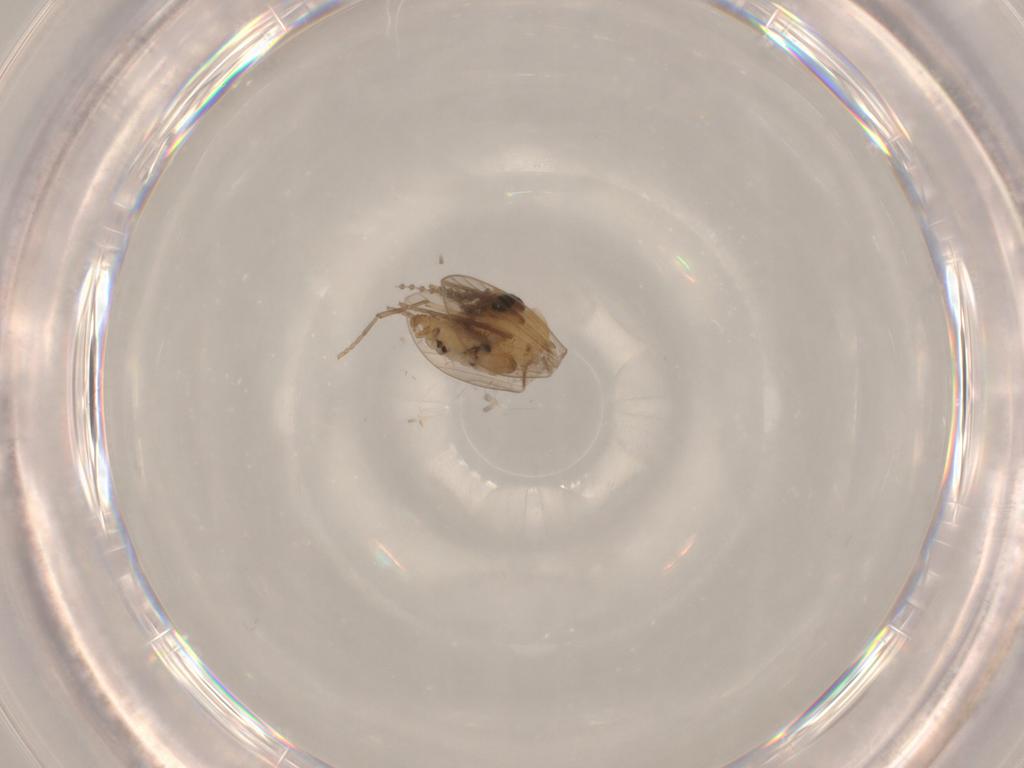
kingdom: Animalia
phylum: Arthropoda
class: Insecta
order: Diptera
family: Psychodidae
